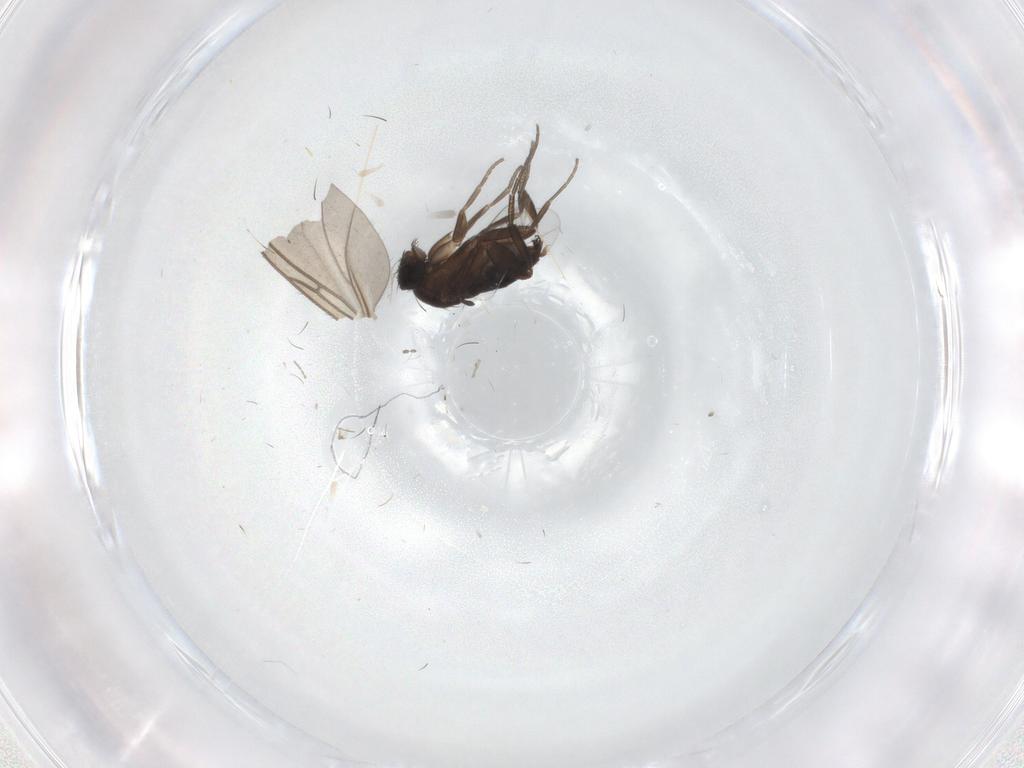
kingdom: Animalia
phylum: Arthropoda
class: Insecta
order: Diptera
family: Phoridae
